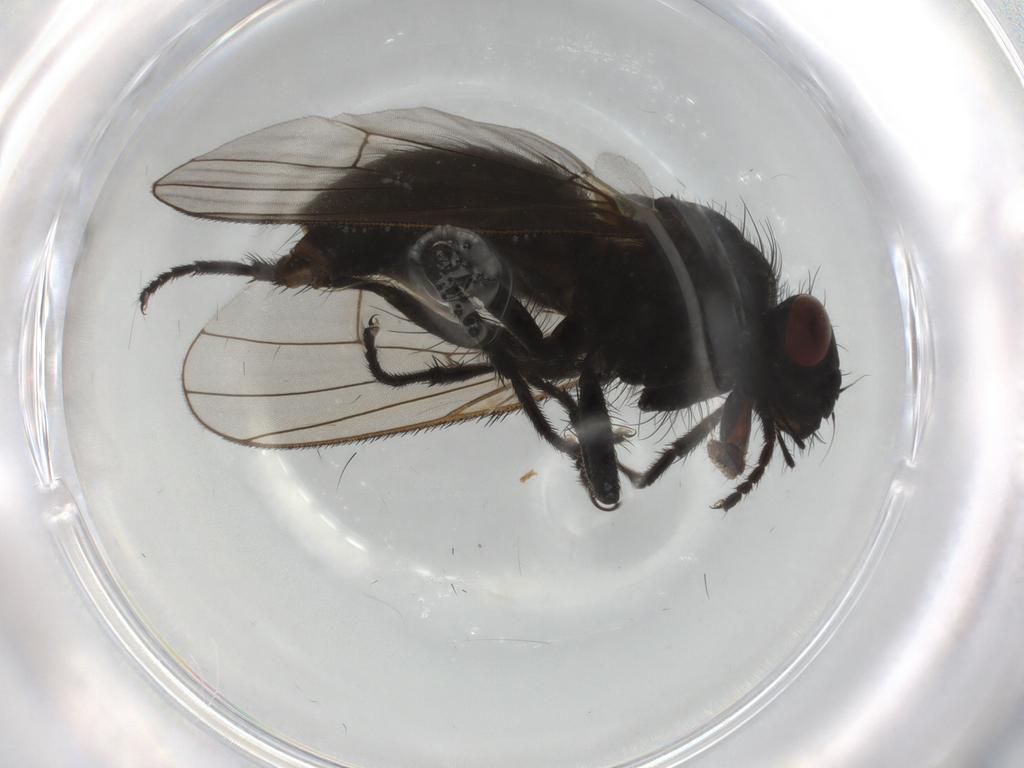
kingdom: Animalia
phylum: Arthropoda
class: Insecta
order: Diptera
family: Muscidae
